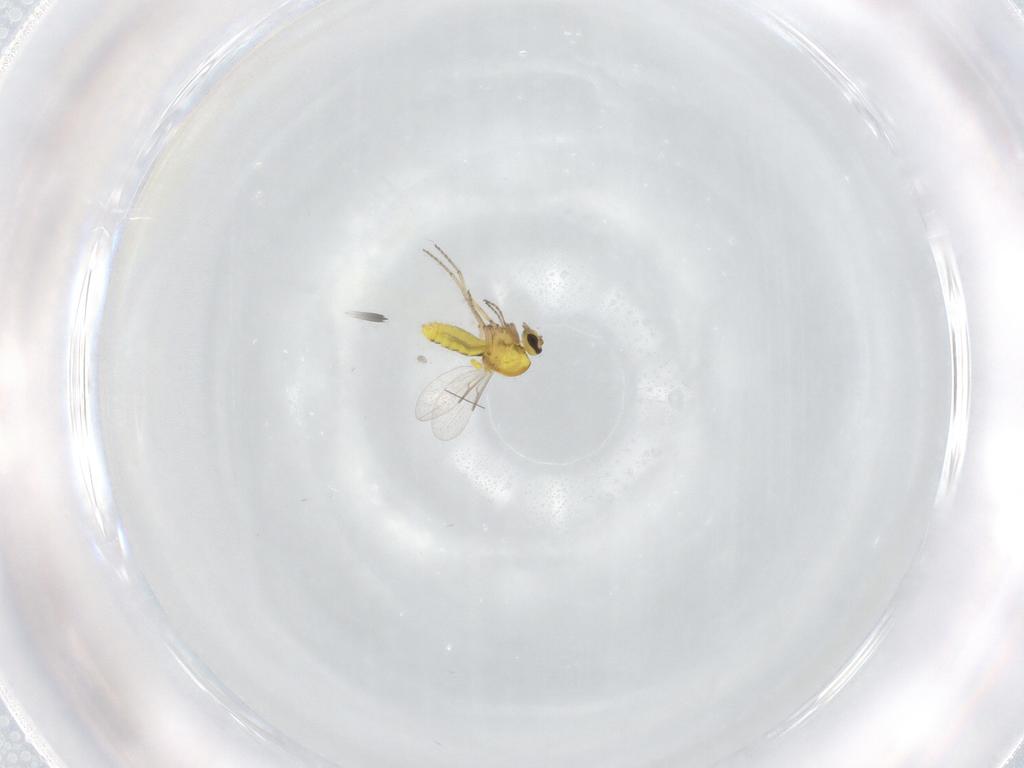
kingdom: Animalia
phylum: Arthropoda
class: Insecta
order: Diptera
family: Ceratopogonidae
